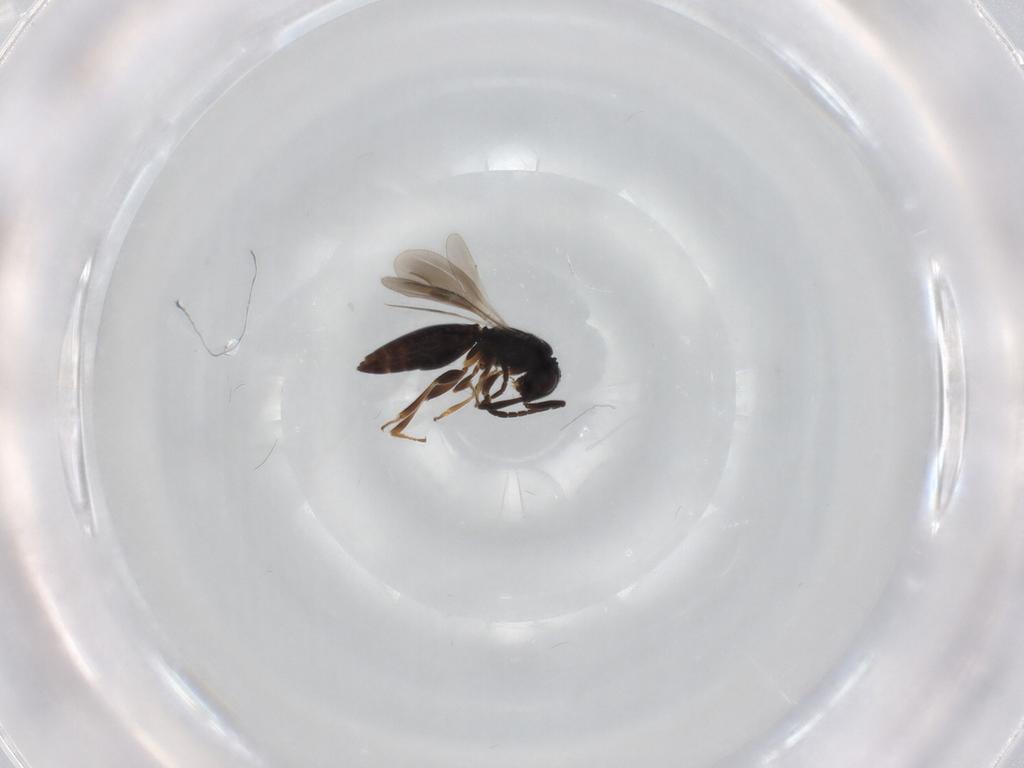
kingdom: Animalia
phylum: Arthropoda
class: Insecta
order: Hymenoptera
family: Megaspilidae
